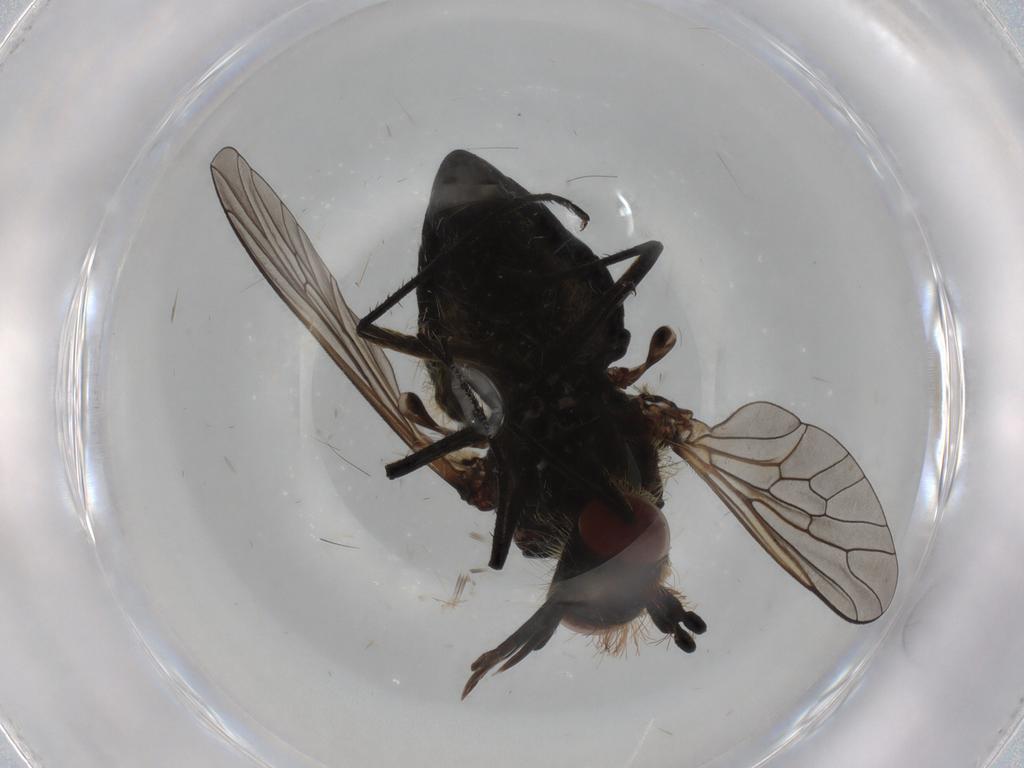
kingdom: Animalia
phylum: Arthropoda
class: Insecta
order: Diptera
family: Bombyliidae
